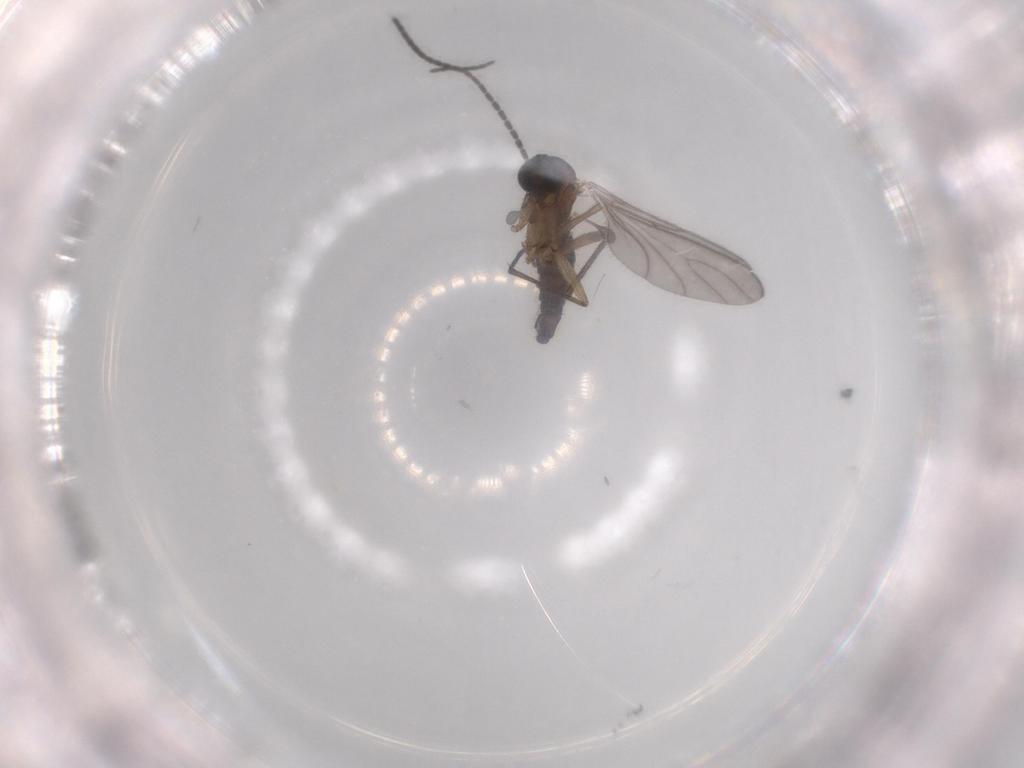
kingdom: Animalia
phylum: Arthropoda
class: Insecta
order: Diptera
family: Sciaridae
